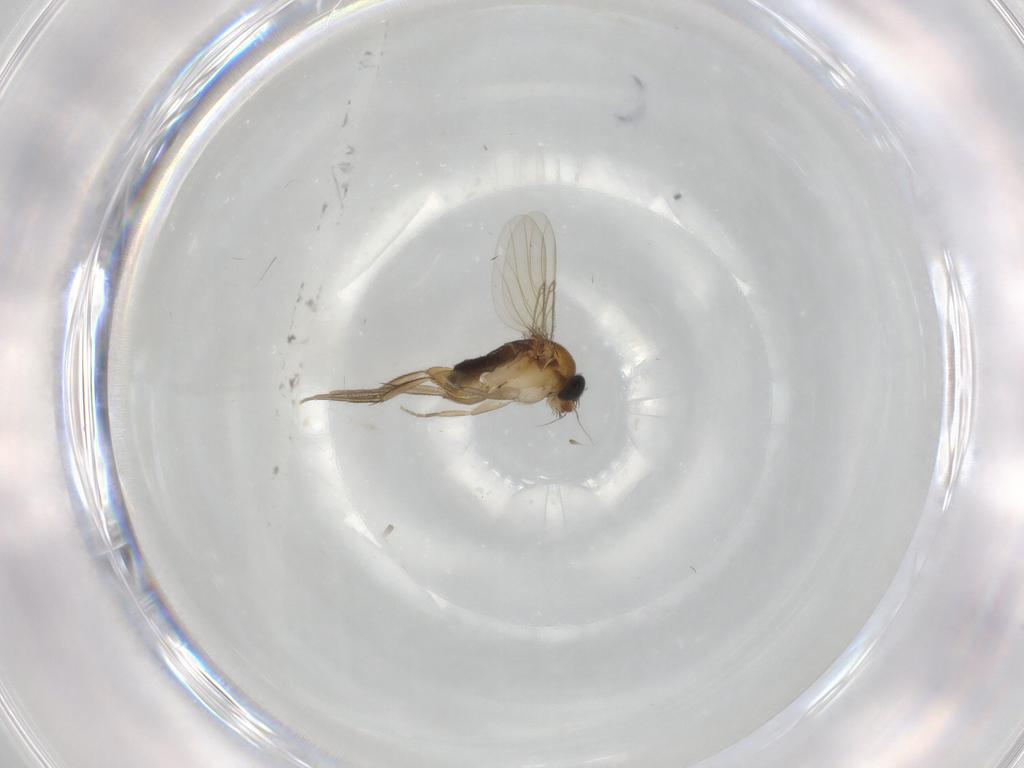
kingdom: Animalia
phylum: Arthropoda
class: Insecta
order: Diptera
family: Phoridae
